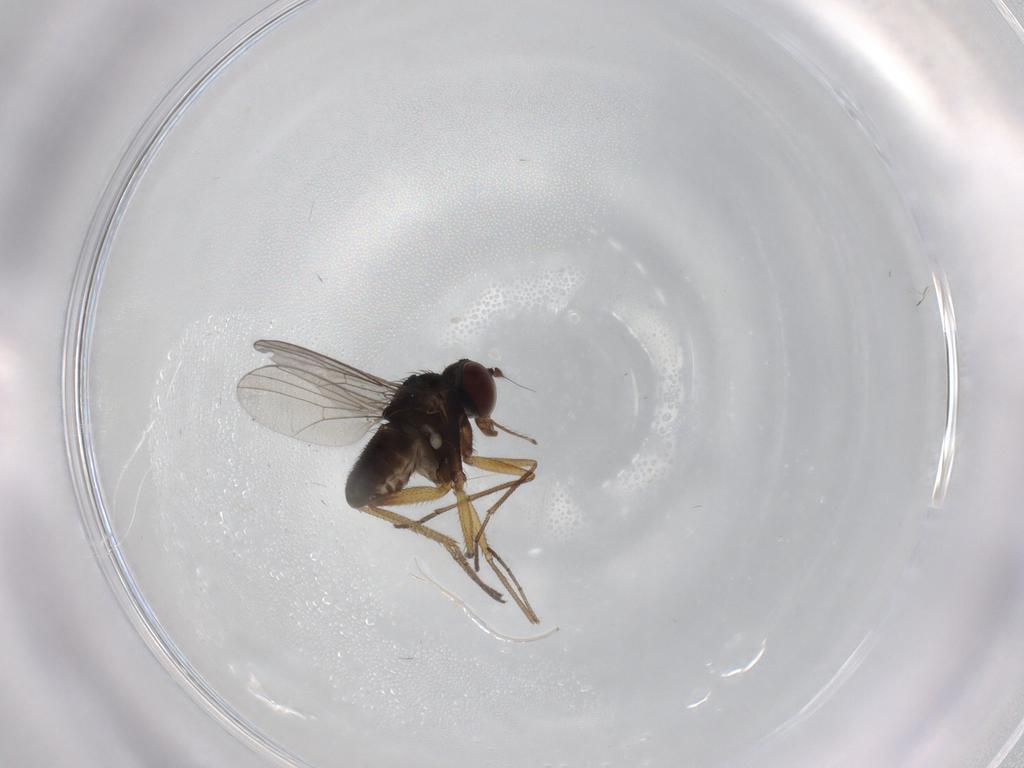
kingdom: Animalia
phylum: Arthropoda
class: Insecta
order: Diptera
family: Dolichopodidae
